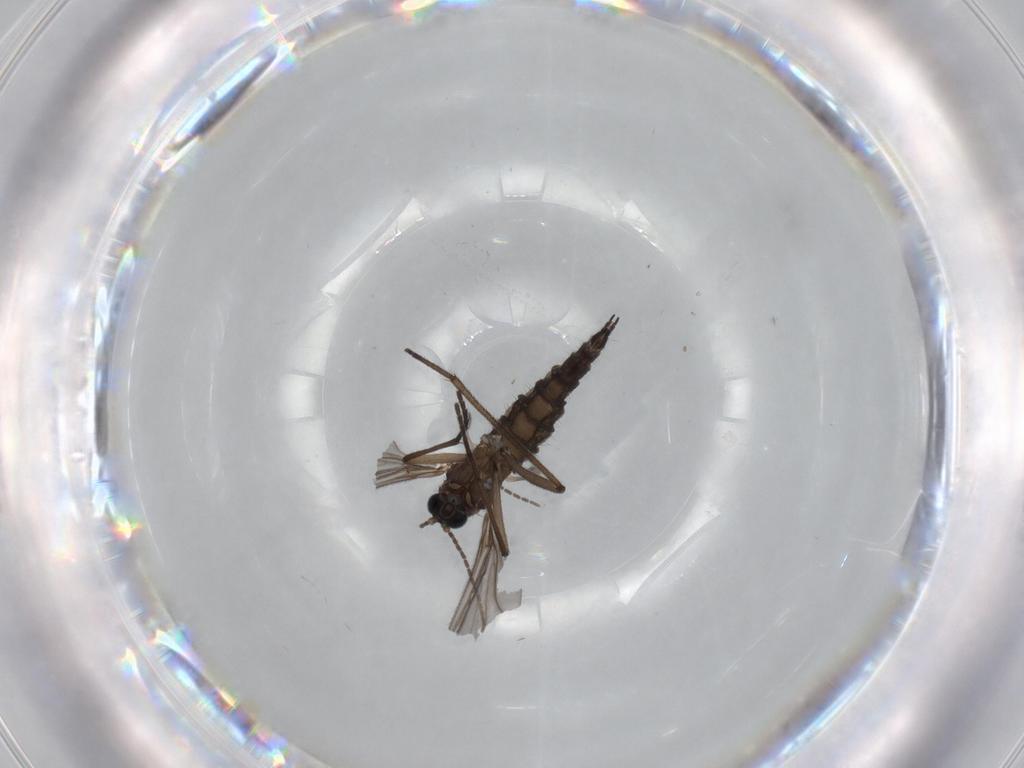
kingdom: Animalia
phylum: Arthropoda
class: Insecta
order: Diptera
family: Sciaridae
